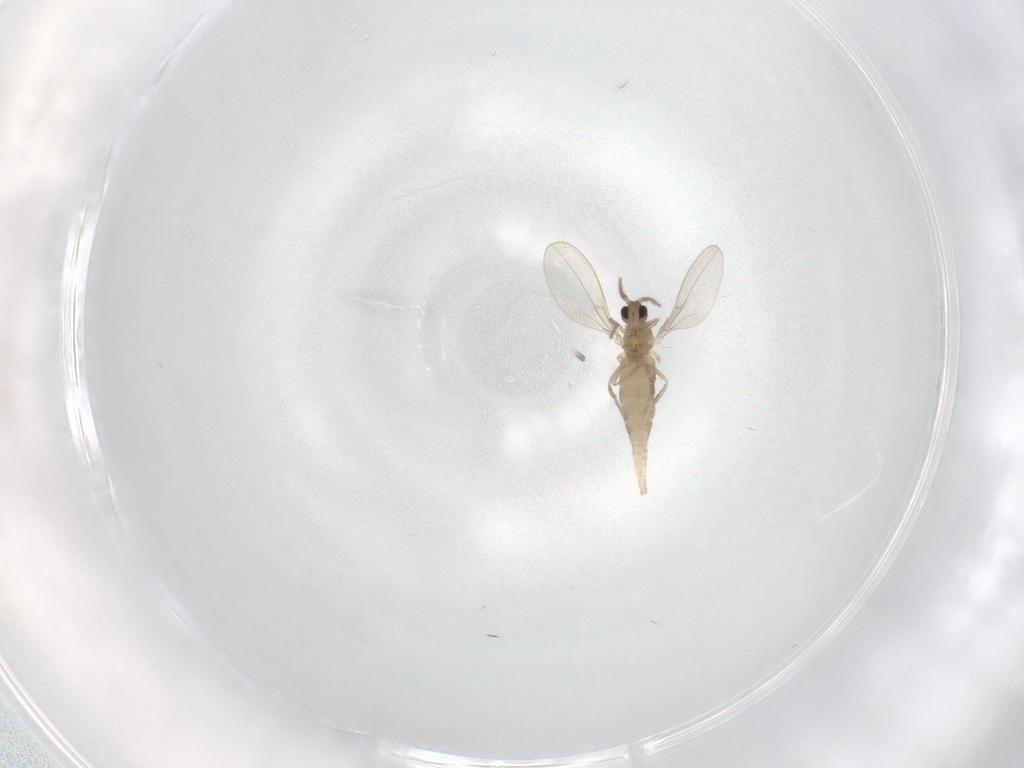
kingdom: Animalia
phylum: Arthropoda
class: Insecta
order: Diptera
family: Cecidomyiidae
